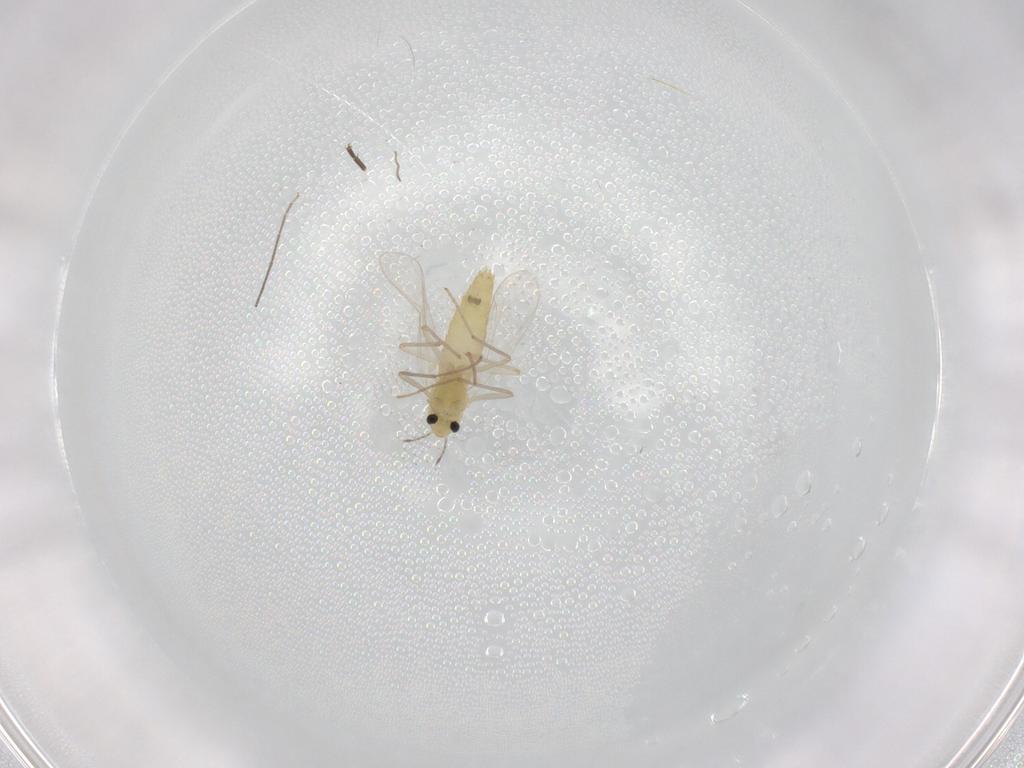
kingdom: Animalia
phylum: Arthropoda
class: Insecta
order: Diptera
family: Chironomidae
